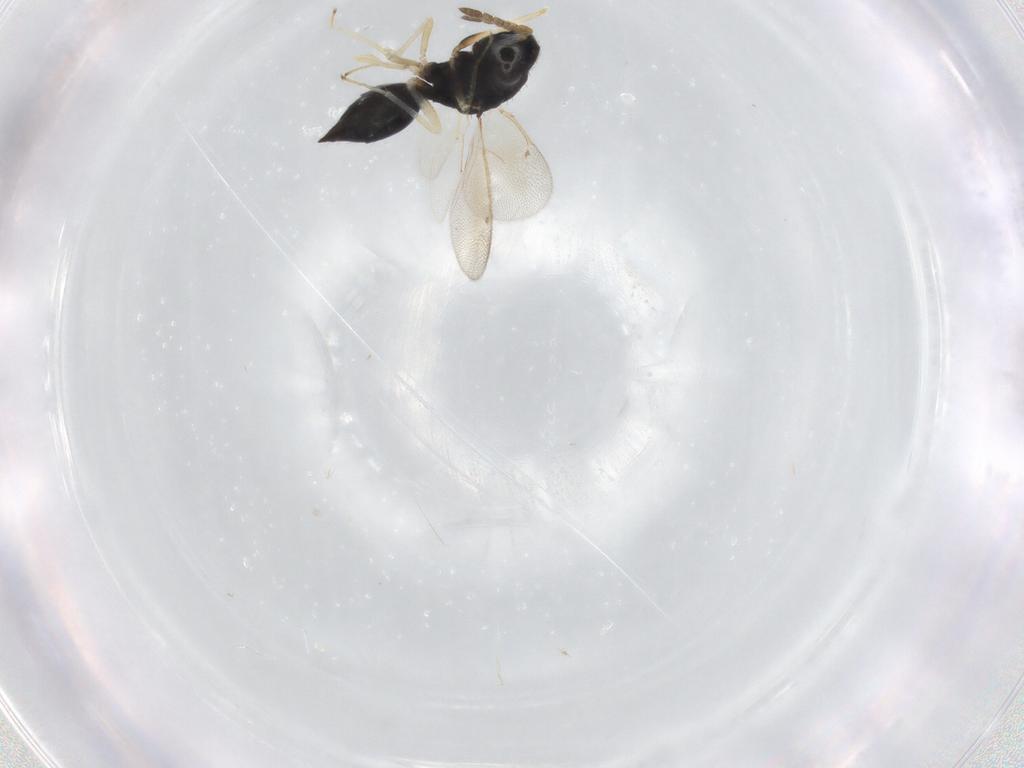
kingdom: Animalia
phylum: Arthropoda
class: Insecta
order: Hymenoptera
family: Eulophidae
